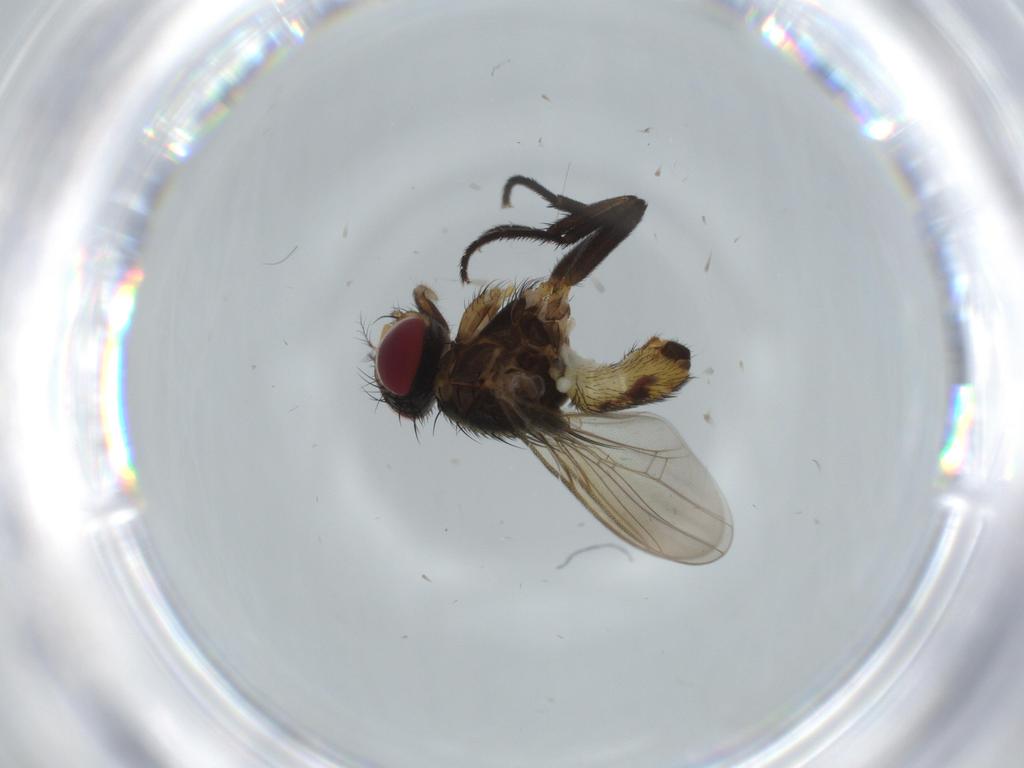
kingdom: Animalia
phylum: Arthropoda
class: Insecta
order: Diptera
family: Anthomyiidae
